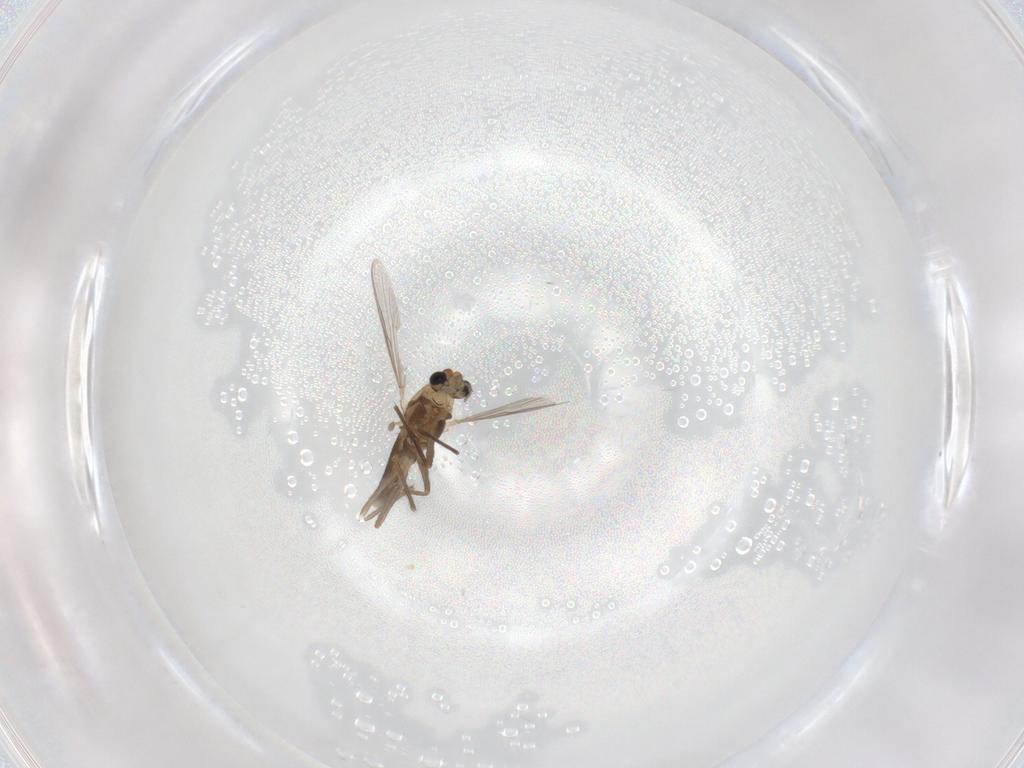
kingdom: Animalia
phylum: Arthropoda
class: Insecta
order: Diptera
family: Chironomidae
